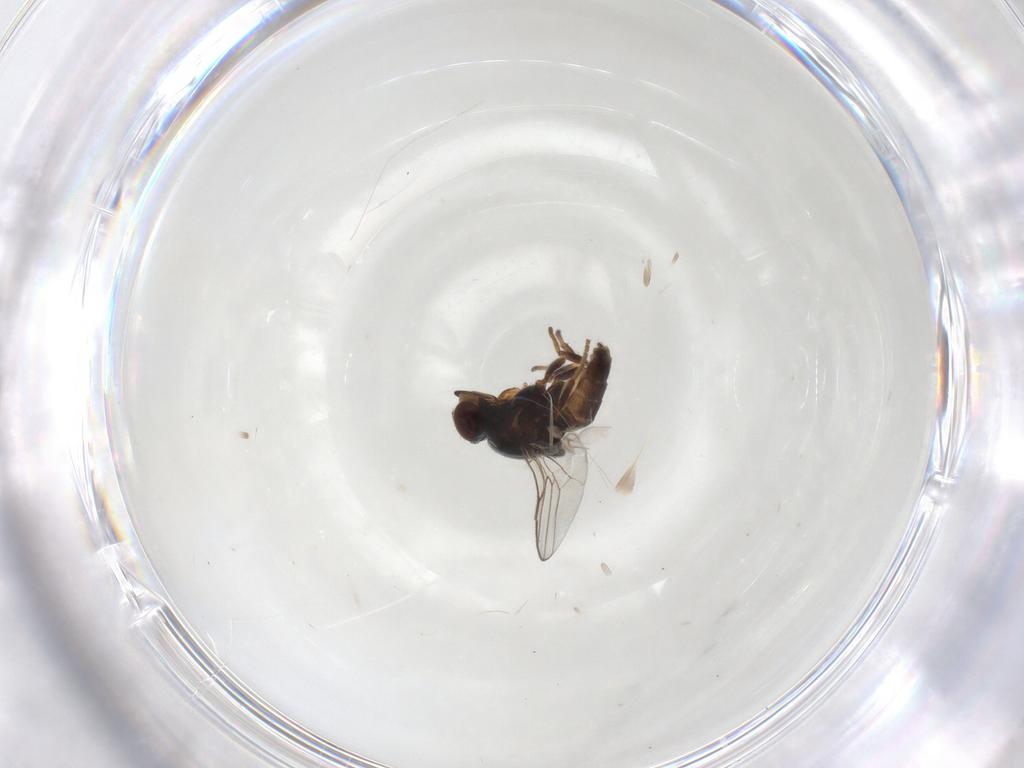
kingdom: Animalia
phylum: Arthropoda
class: Insecta
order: Diptera
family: Chloropidae
